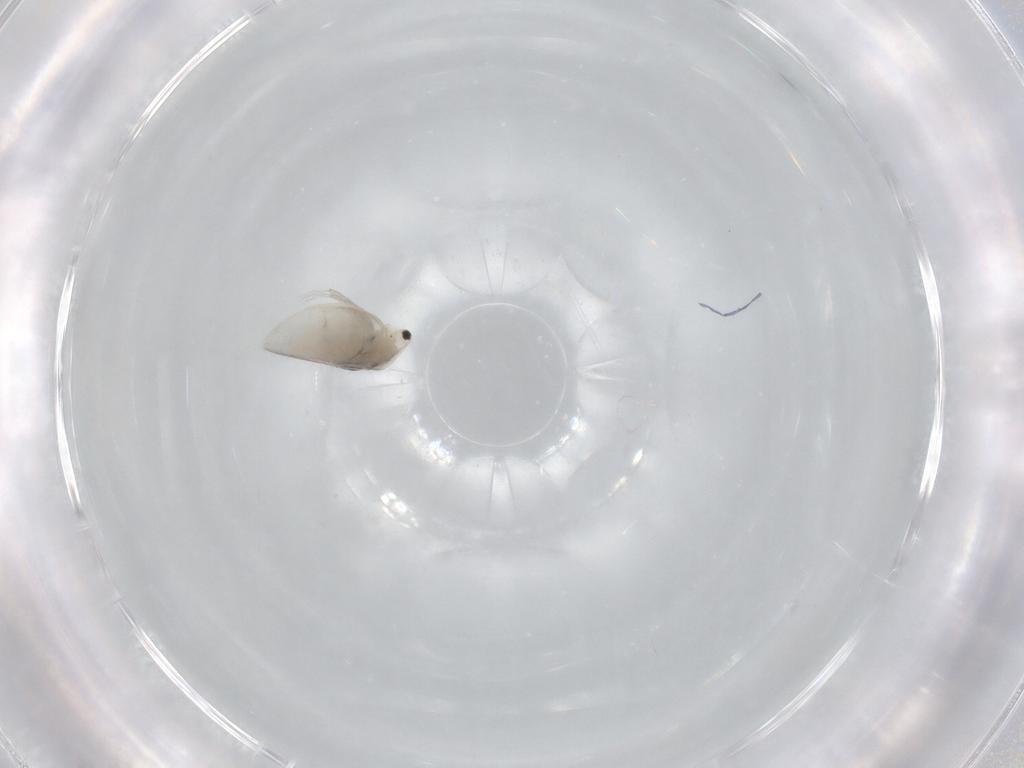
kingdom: Animalia
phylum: Arthropoda
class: Branchiopoda
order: Diplostraca
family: Daphniidae
